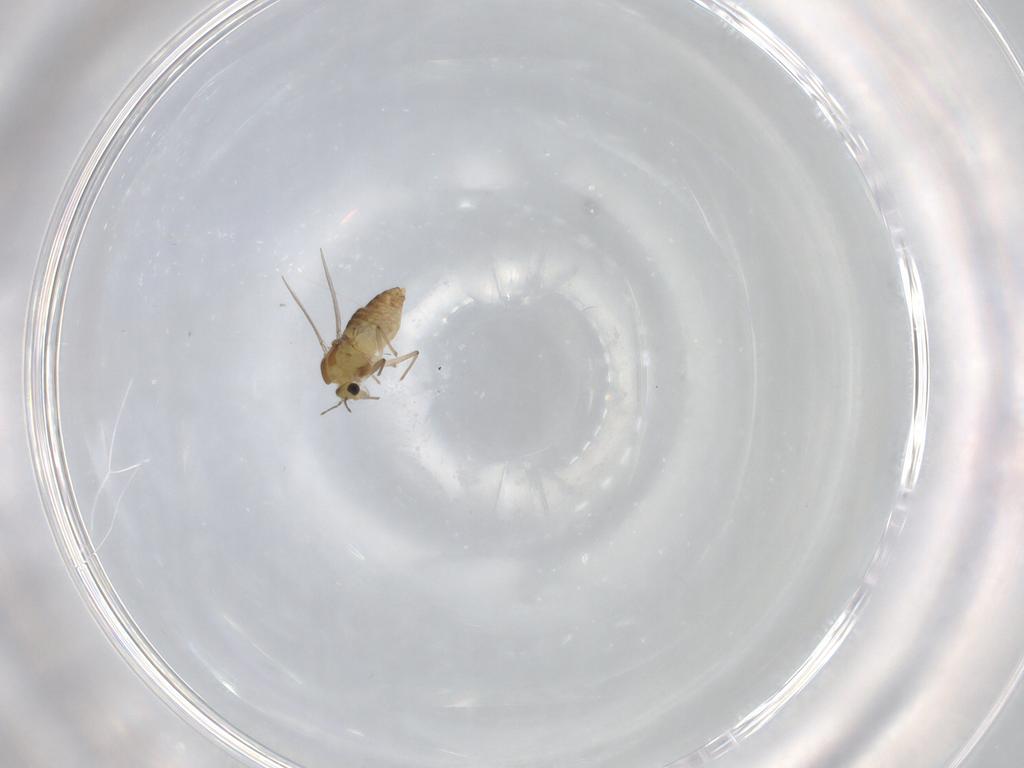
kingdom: Animalia
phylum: Arthropoda
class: Insecta
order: Diptera
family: Chironomidae
